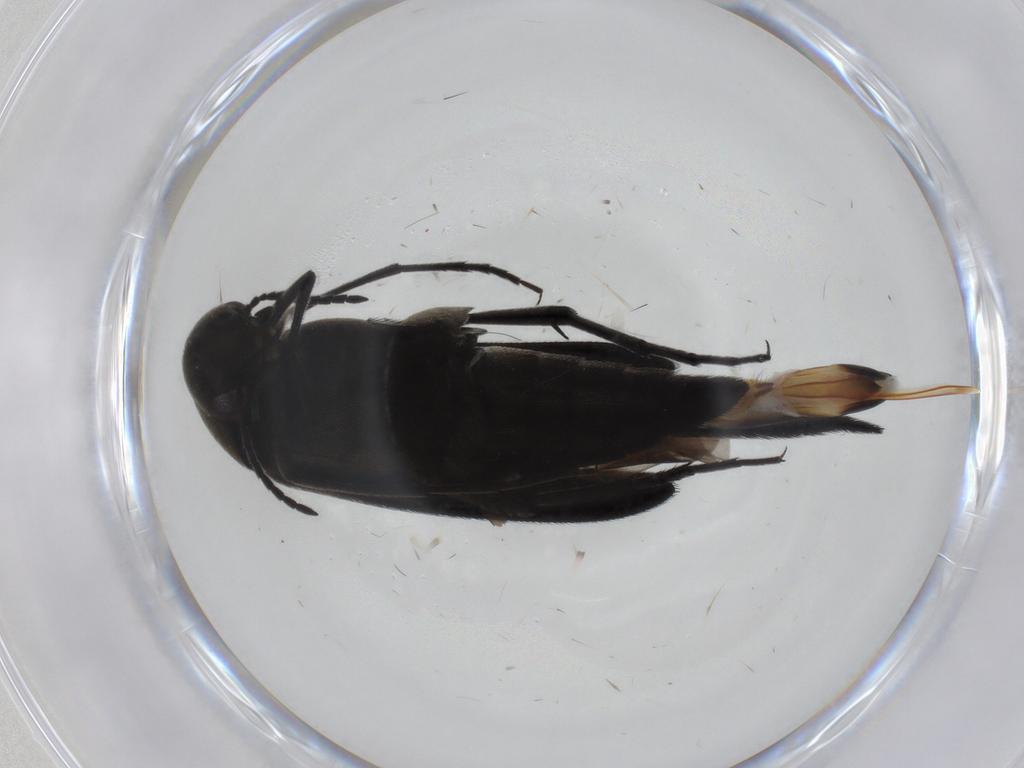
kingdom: Animalia
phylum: Arthropoda
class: Insecta
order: Coleoptera
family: Mordellidae
